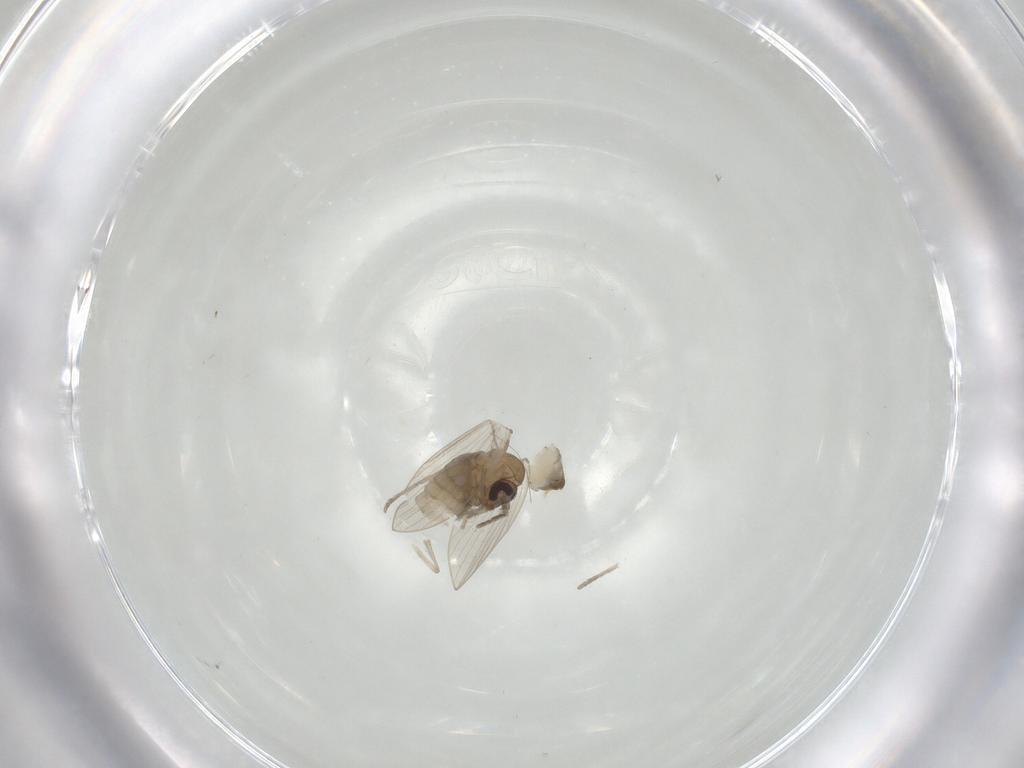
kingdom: Animalia
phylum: Arthropoda
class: Insecta
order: Diptera
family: Psychodidae
